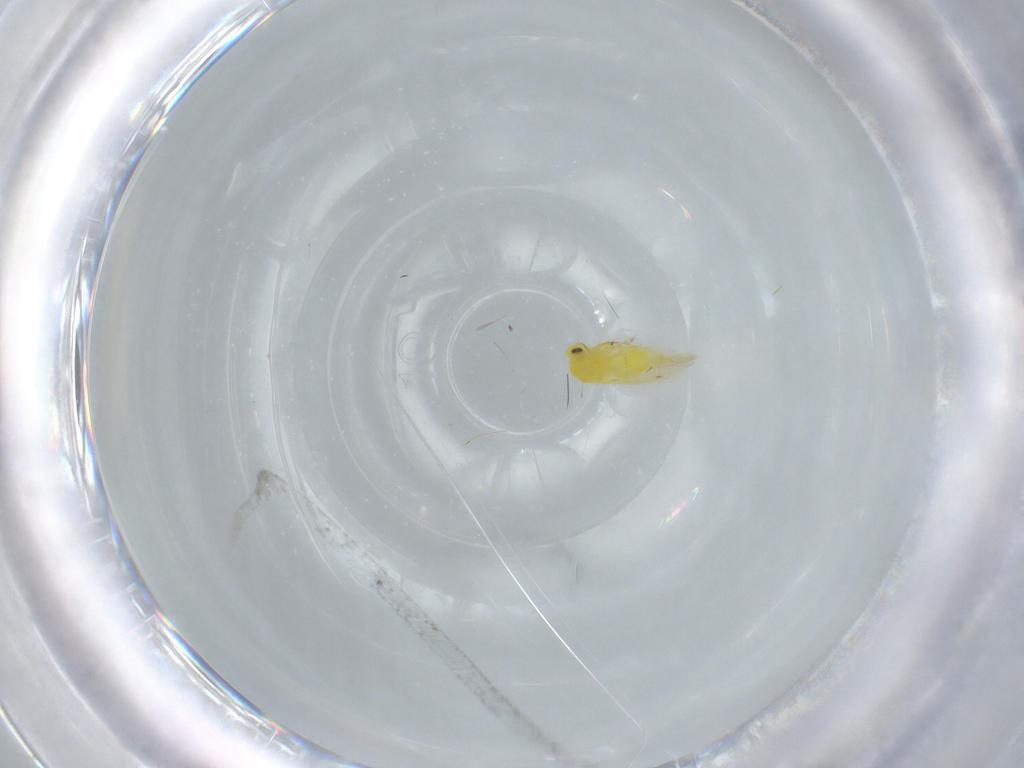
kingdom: Animalia
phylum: Arthropoda
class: Insecta
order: Hemiptera
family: Aleyrodidae
